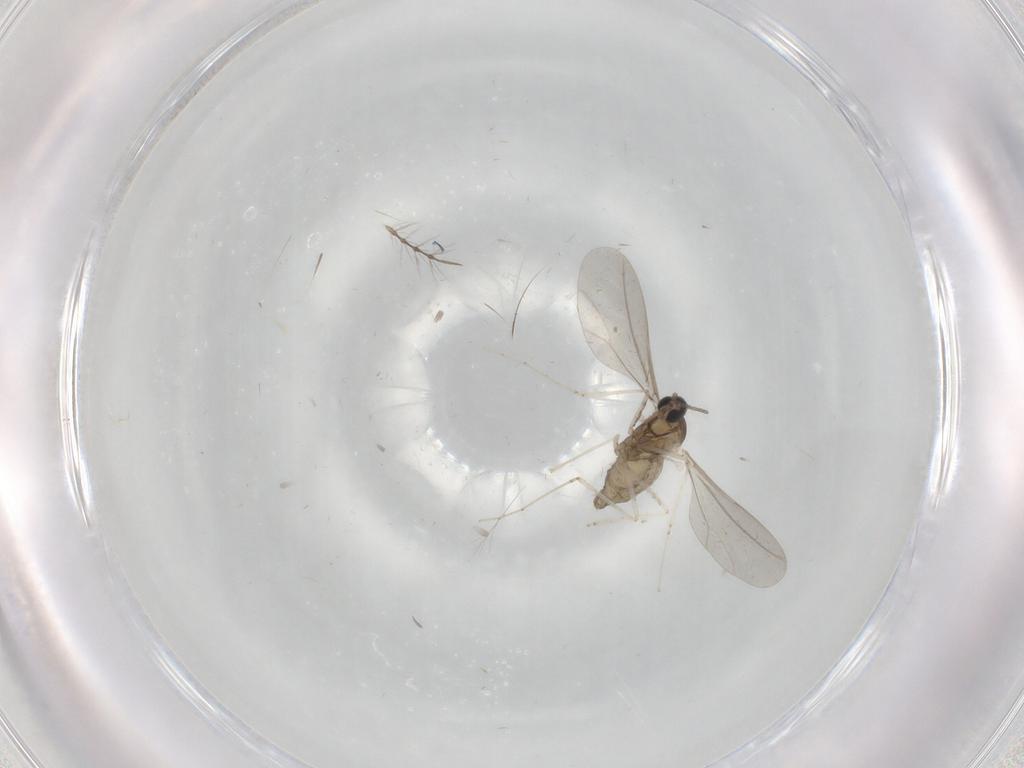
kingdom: Animalia
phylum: Arthropoda
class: Insecta
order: Diptera
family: Chironomidae
